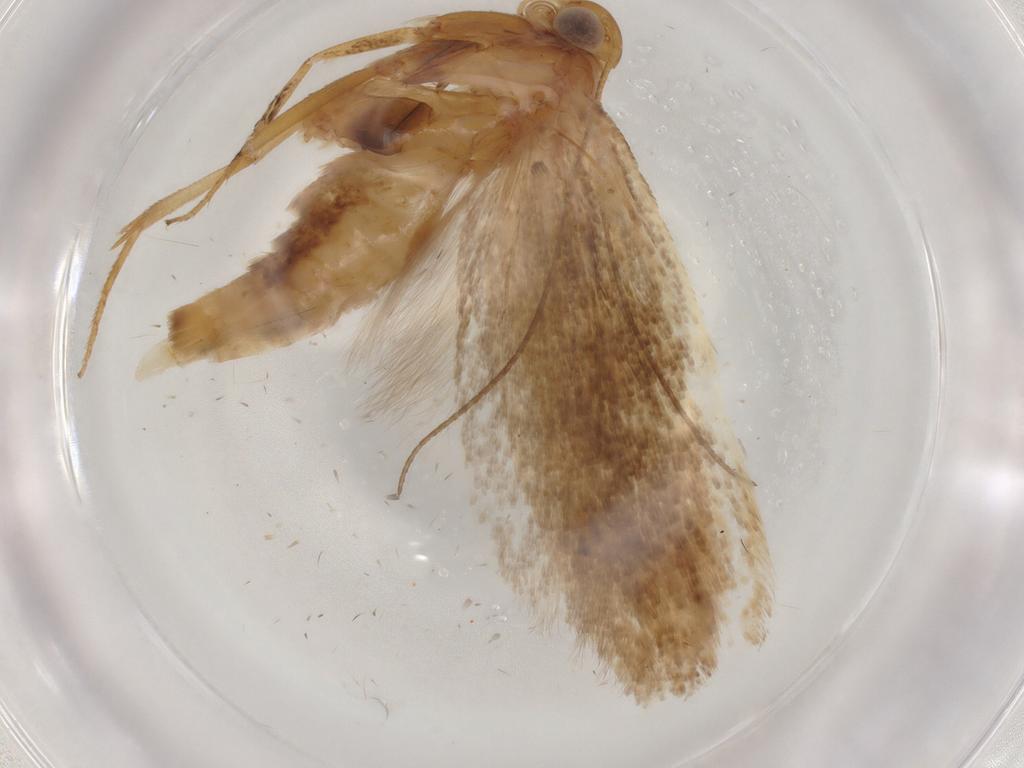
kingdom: Animalia
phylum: Arthropoda
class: Insecta
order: Lepidoptera
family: Gelechiidae
